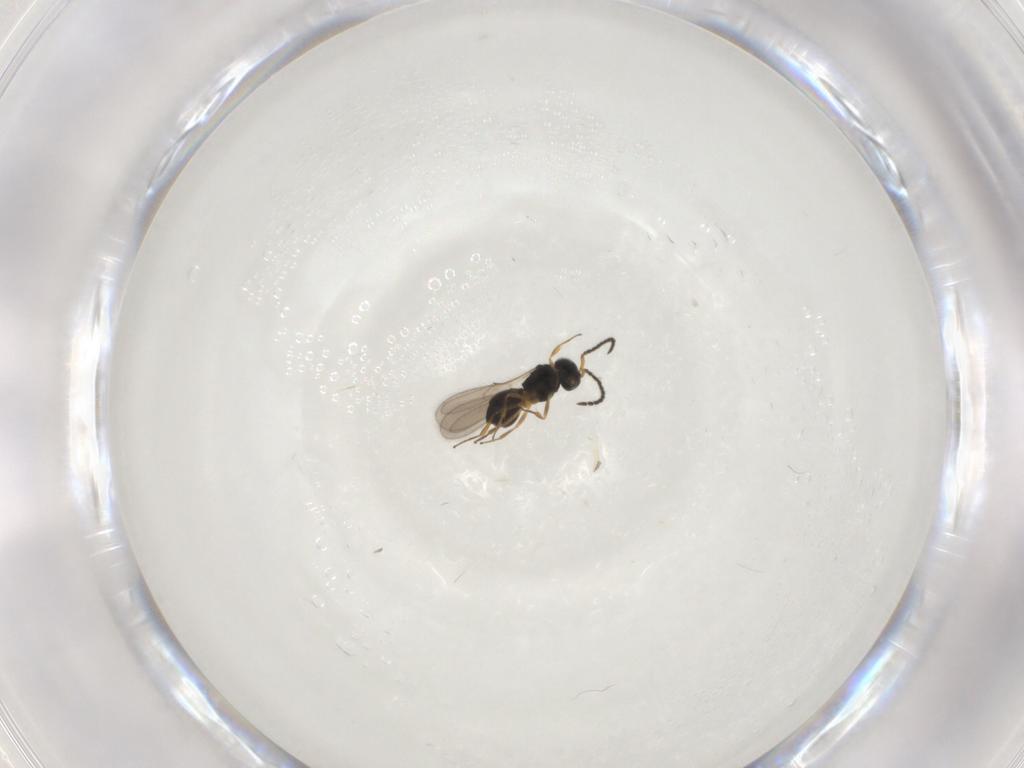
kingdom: Animalia
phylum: Arthropoda
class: Insecta
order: Hymenoptera
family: Scelionidae
